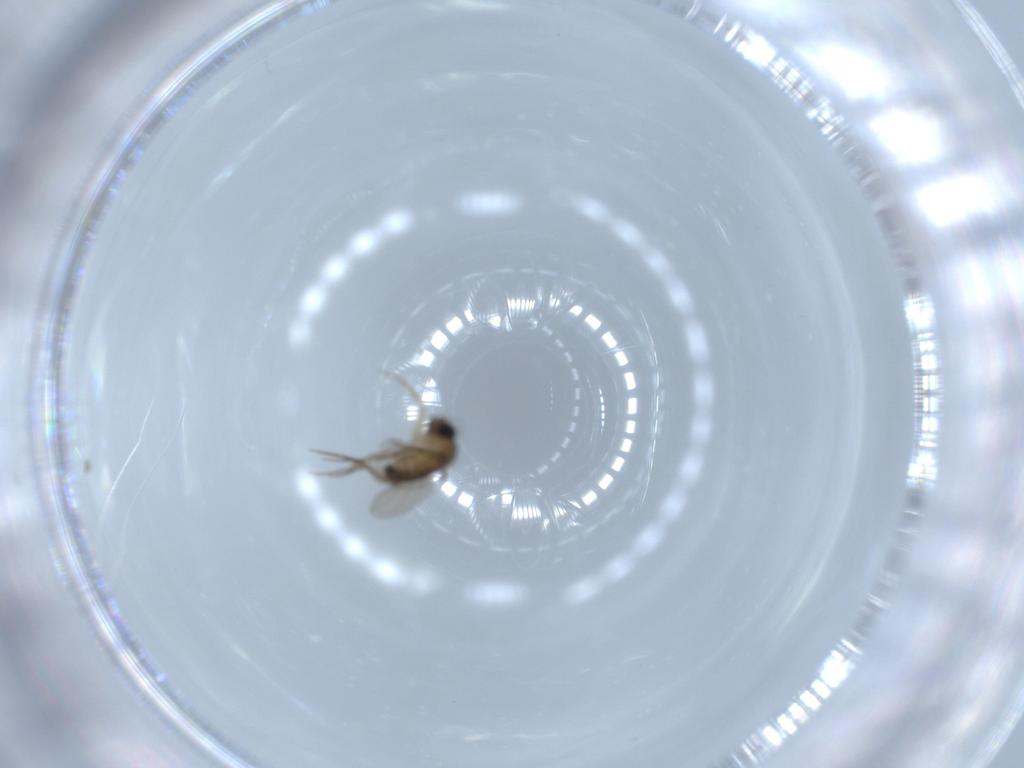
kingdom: Animalia
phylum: Arthropoda
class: Insecta
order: Diptera
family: Phoridae
